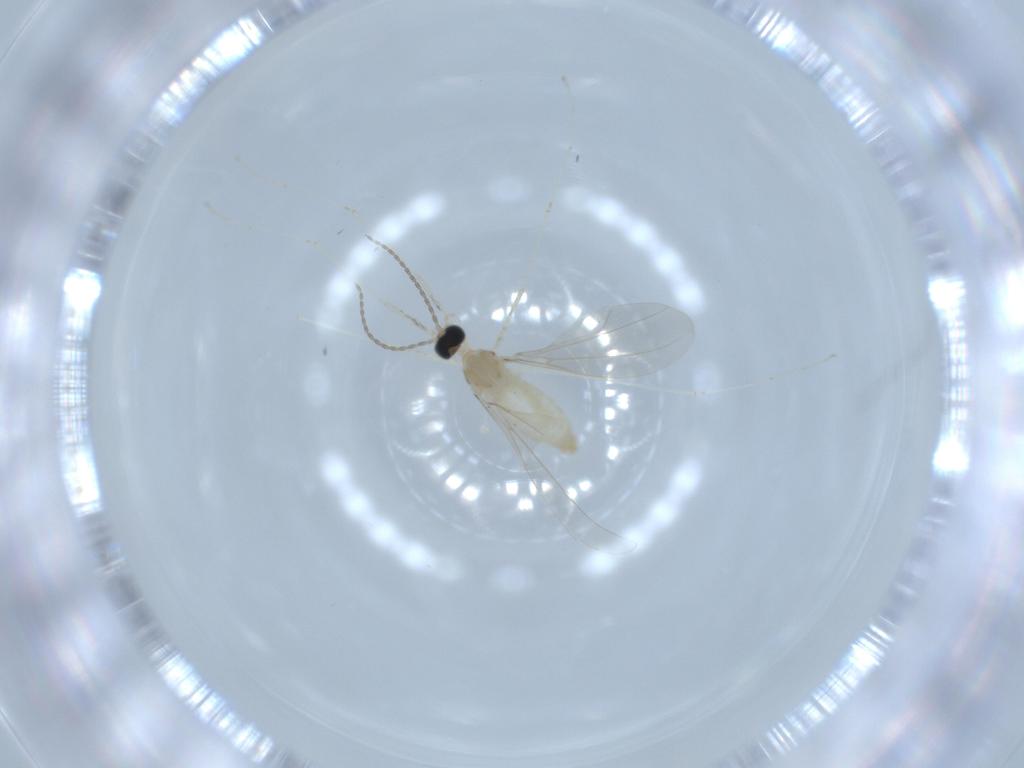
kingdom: Animalia
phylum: Arthropoda
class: Insecta
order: Diptera
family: Cecidomyiidae
